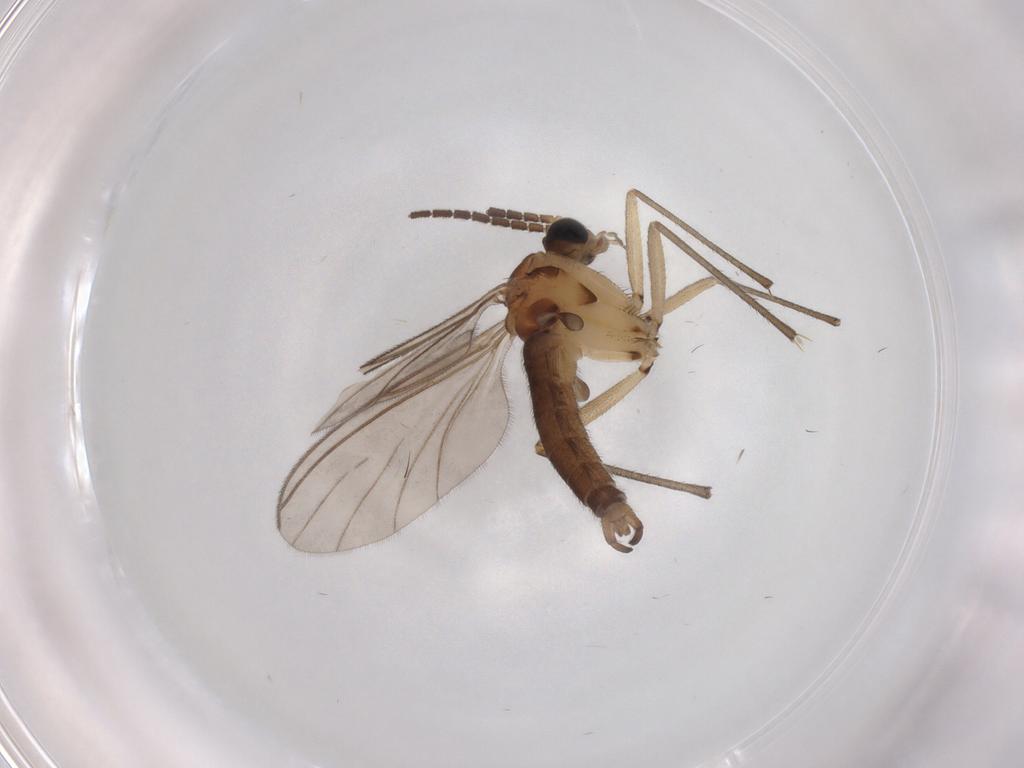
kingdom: Animalia
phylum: Arthropoda
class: Insecta
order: Diptera
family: Sciaridae
